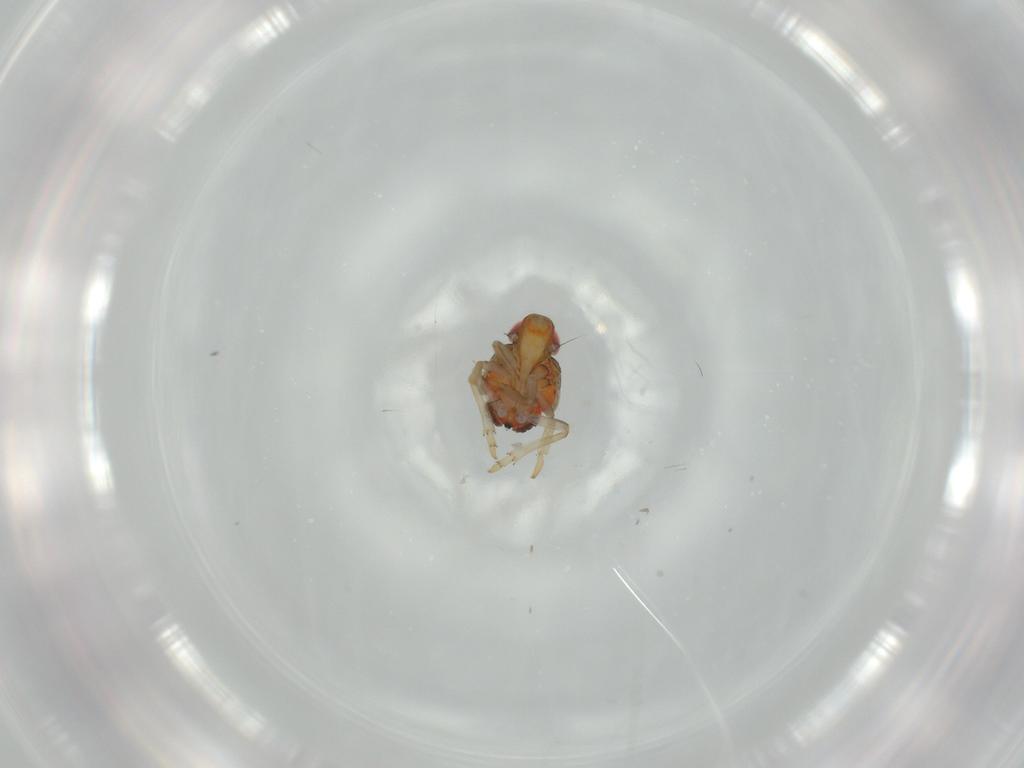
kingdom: Animalia
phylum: Arthropoda
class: Insecta
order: Hemiptera
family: Issidae
